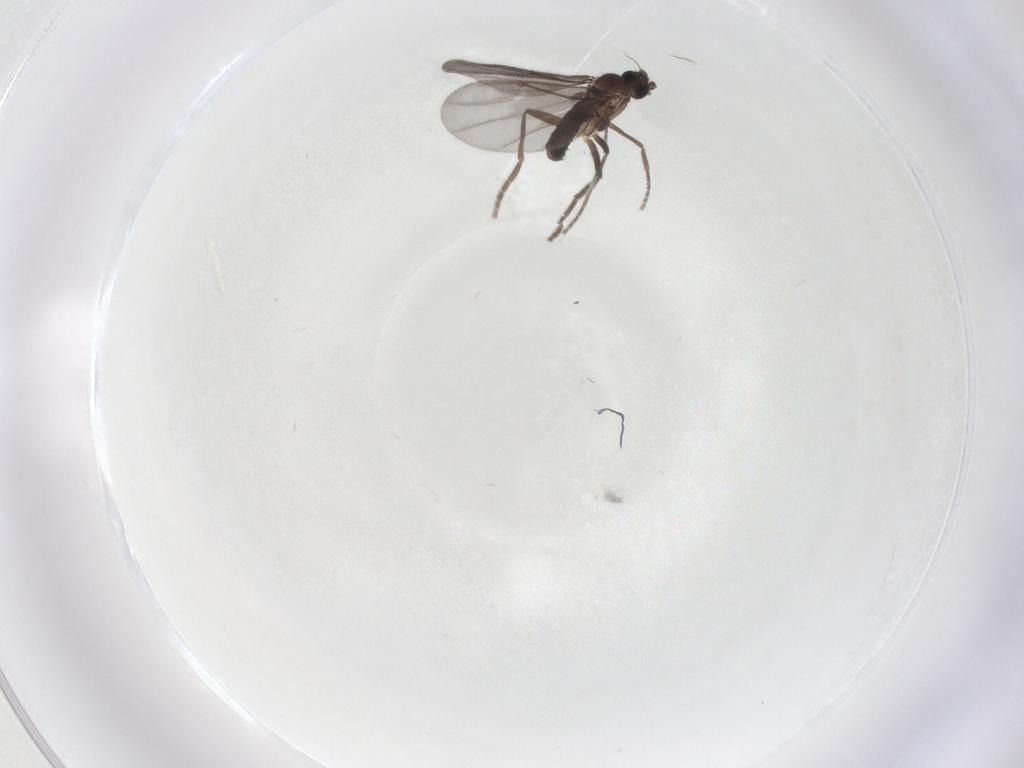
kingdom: Animalia
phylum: Arthropoda
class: Insecta
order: Diptera
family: Phoridae
